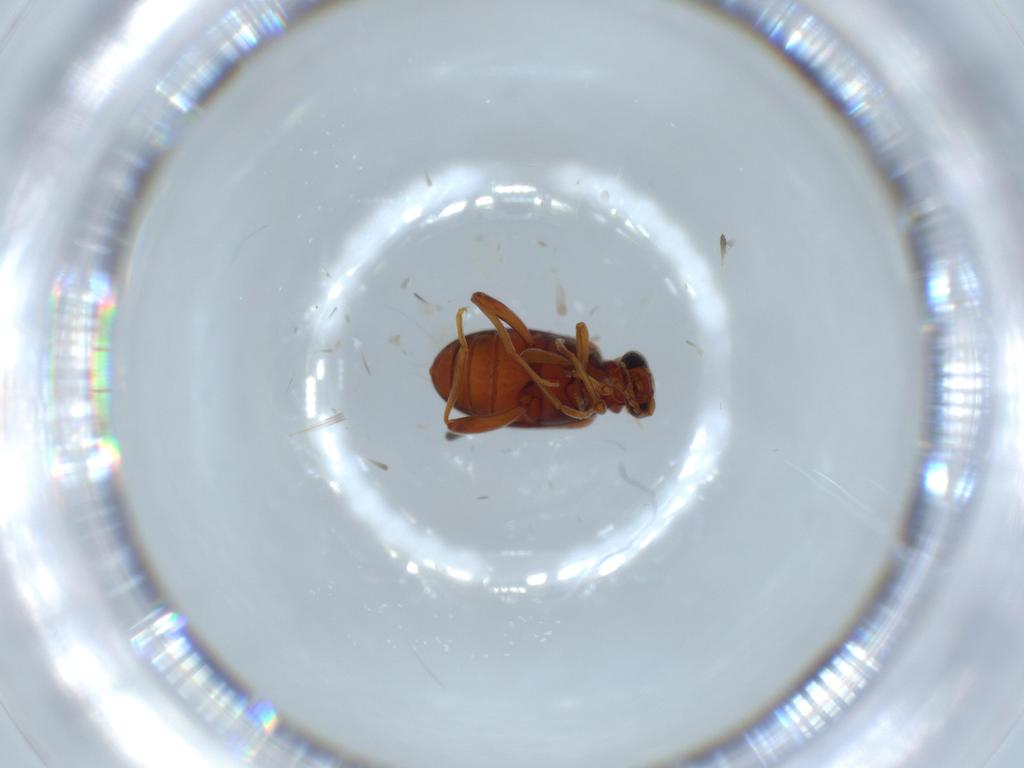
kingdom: Animalia
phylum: Arthropoda
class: Insecta
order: Coleoptera
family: Aderidae
